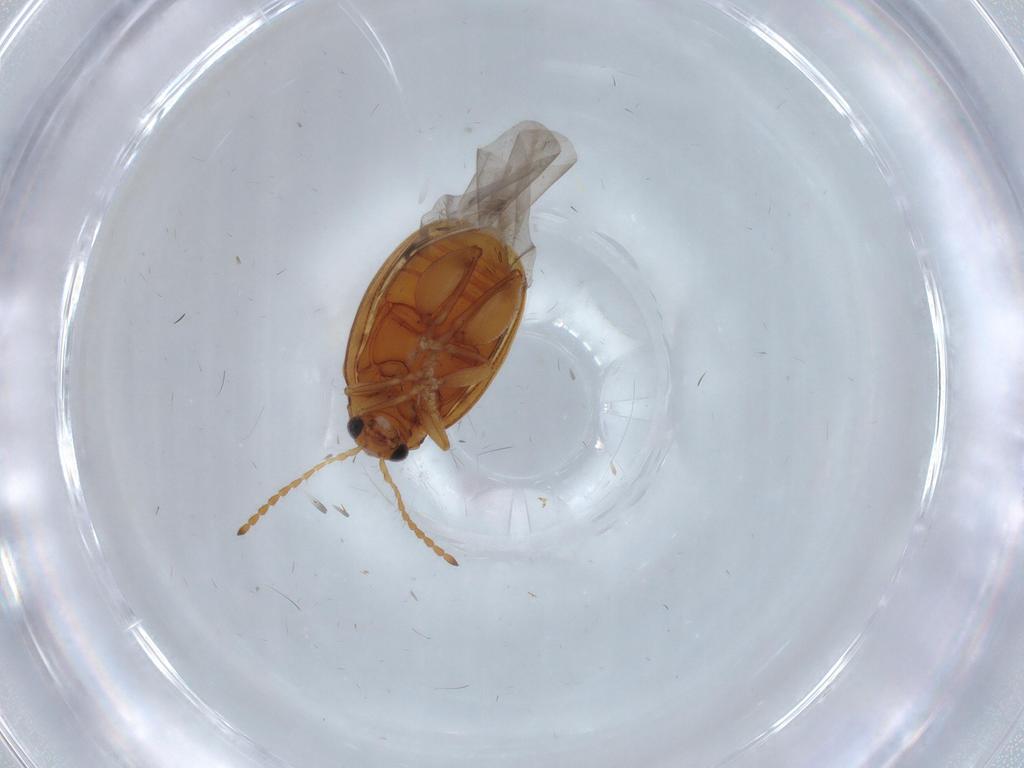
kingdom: Animalia
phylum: Arthropoda
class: Insecta
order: Coleoptera
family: Chrysomelidae
